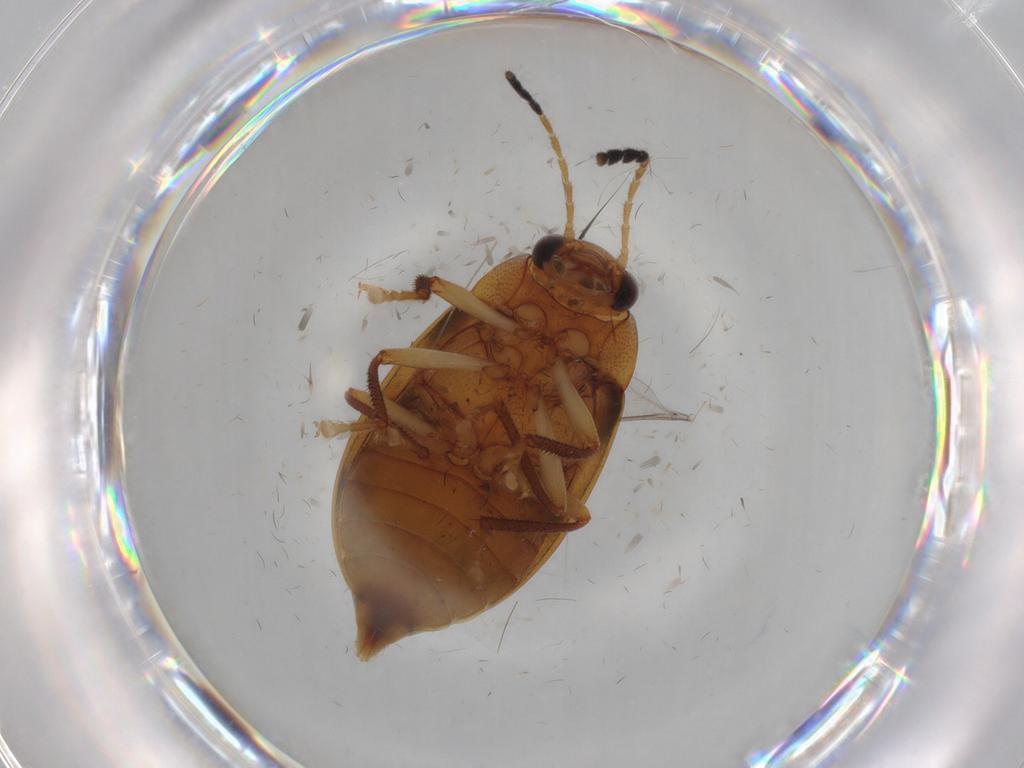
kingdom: Animalia
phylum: Arthropoda
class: Insecta
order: Coleoptera
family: Ptilodactylidae
